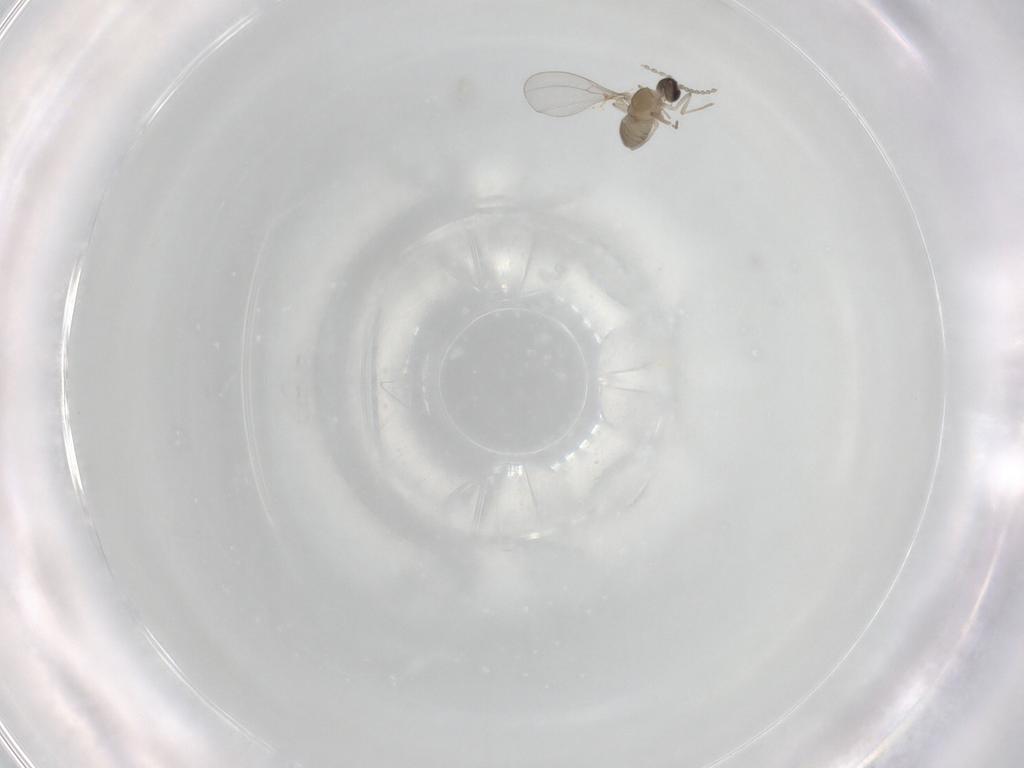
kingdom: Animalia
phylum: Arthropoda
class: Insecta
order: Diptera
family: Cecidomyiidae
